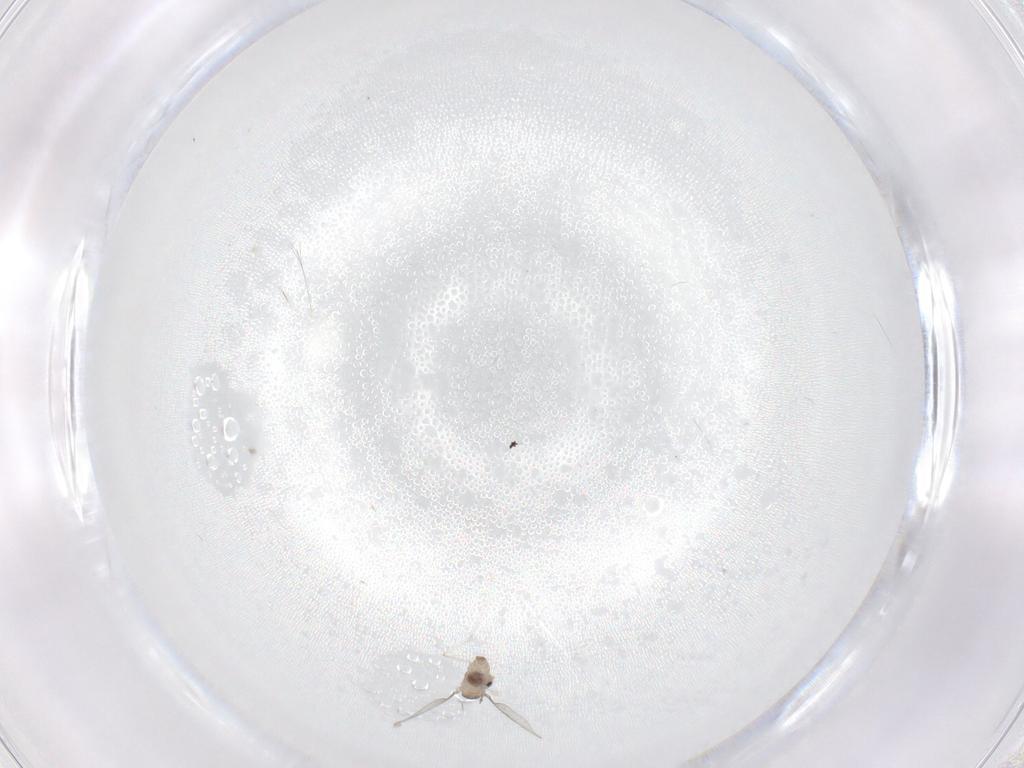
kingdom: Animalia
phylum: Arthropoda
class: Insecta
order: Diptera
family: Cecidomyiidae
